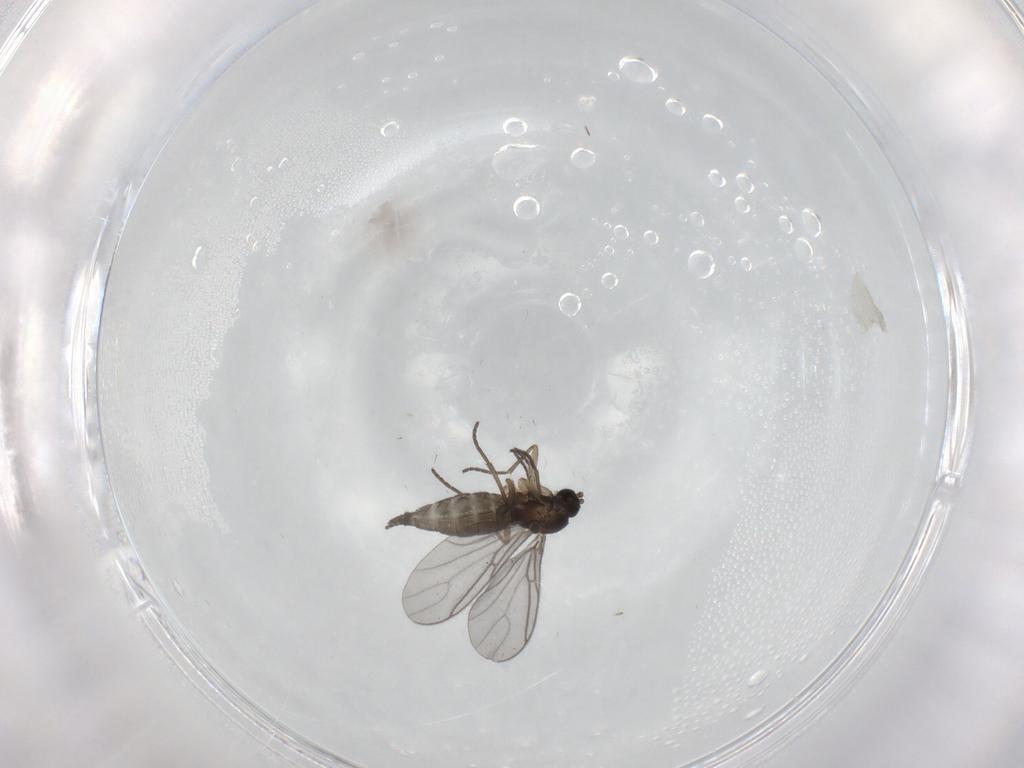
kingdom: Animalia
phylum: Arthropoda
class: Insecta
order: Diptera
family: Sciaridae
